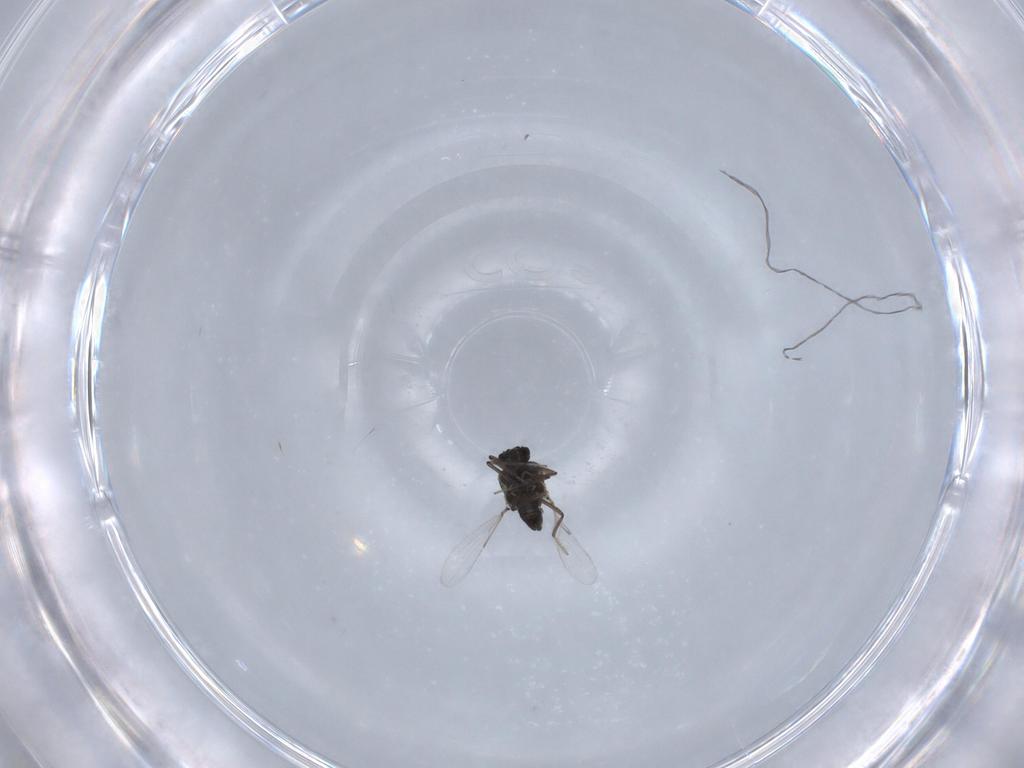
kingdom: Animalia
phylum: Arthropoda
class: Insecta
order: Diptera
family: Ceratopogonidae
